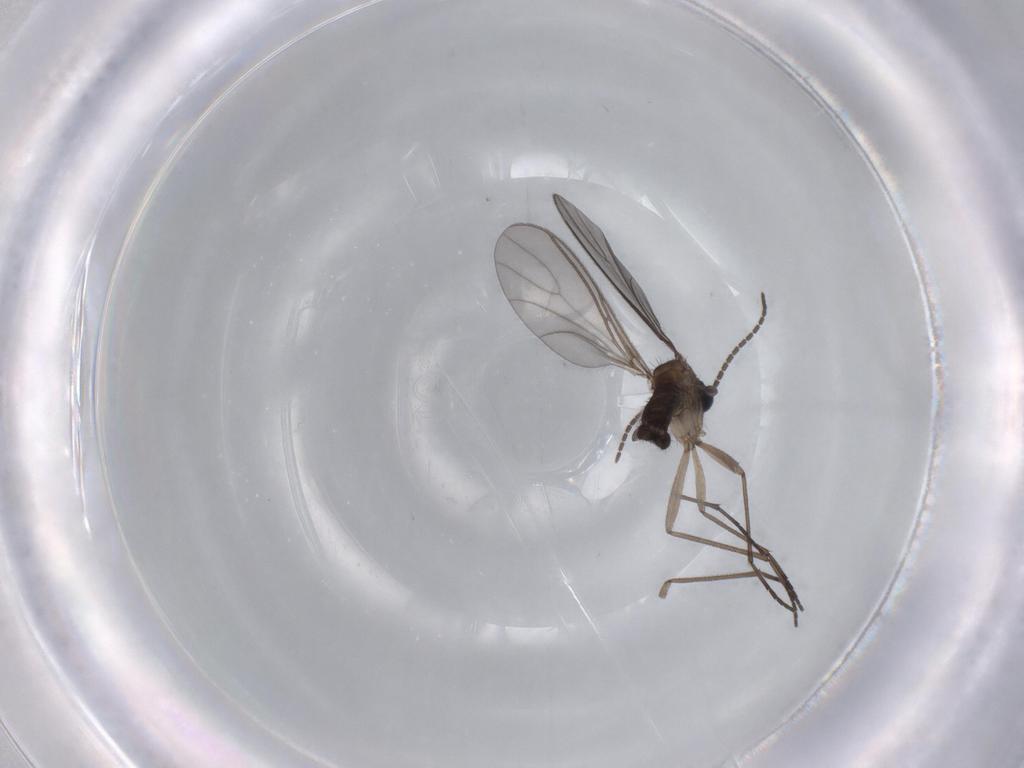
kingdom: Animalia
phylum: Arthropoda
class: Insecta
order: Diptera
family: Sciaridae
